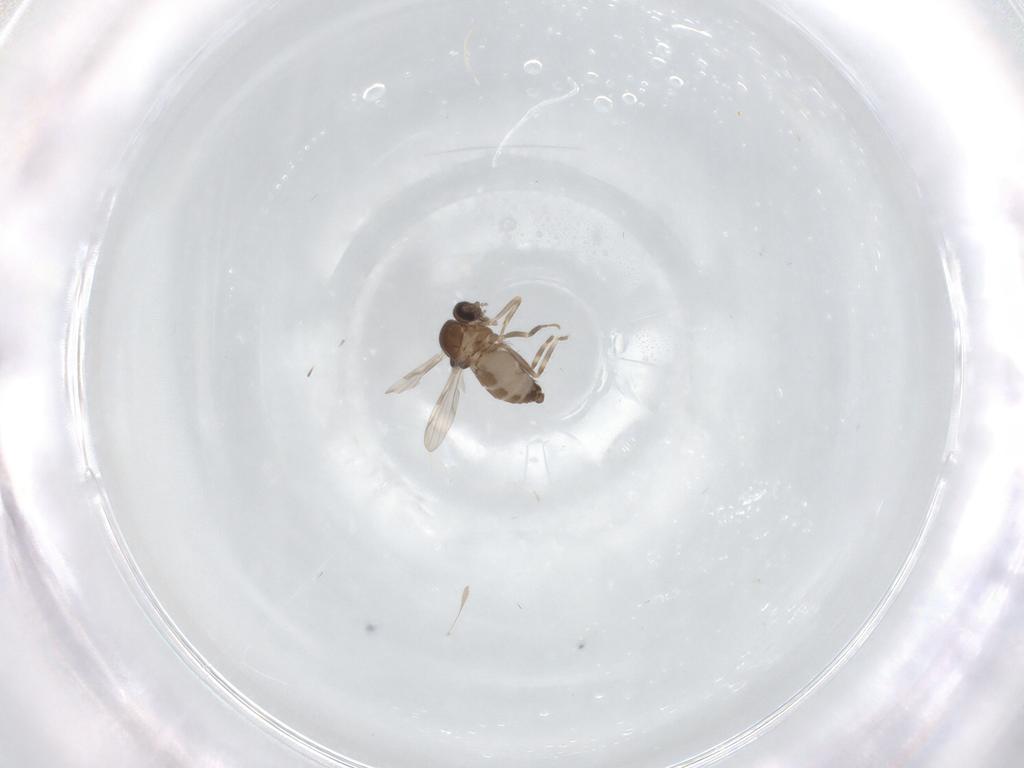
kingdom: Animalia
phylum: Arthropoda
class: Insecta
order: Diptera
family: Ceratopogonidae
